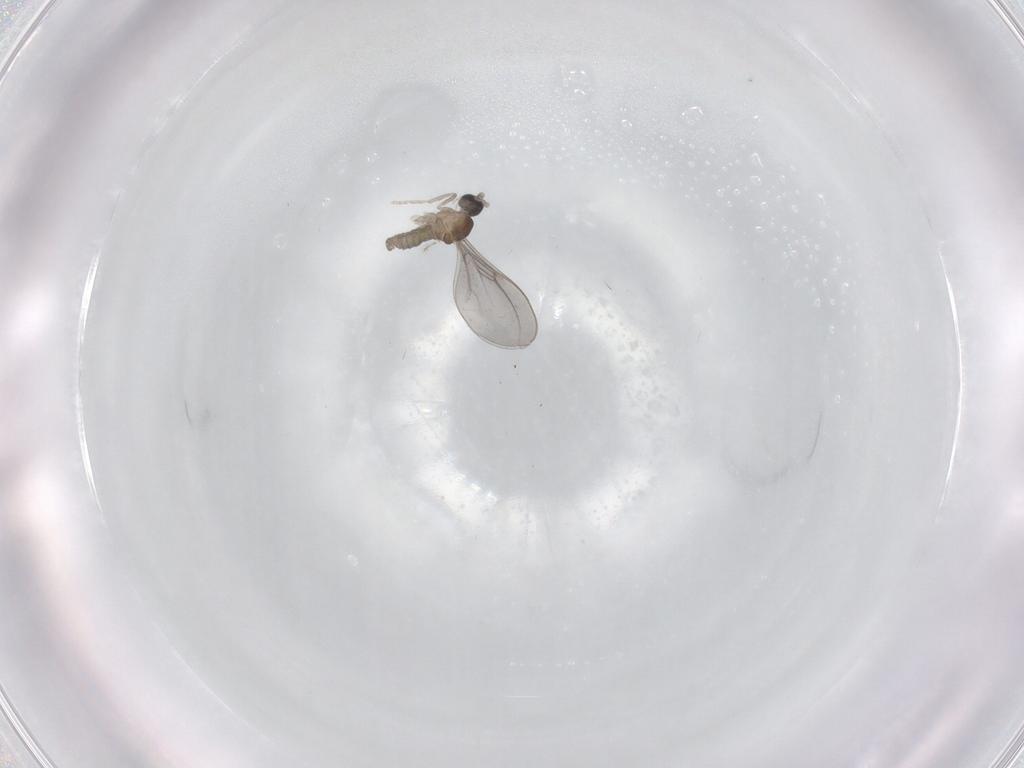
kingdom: Animalia
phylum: Arthropoda
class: Insecta
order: Diptera
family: Cecidomyiidae
